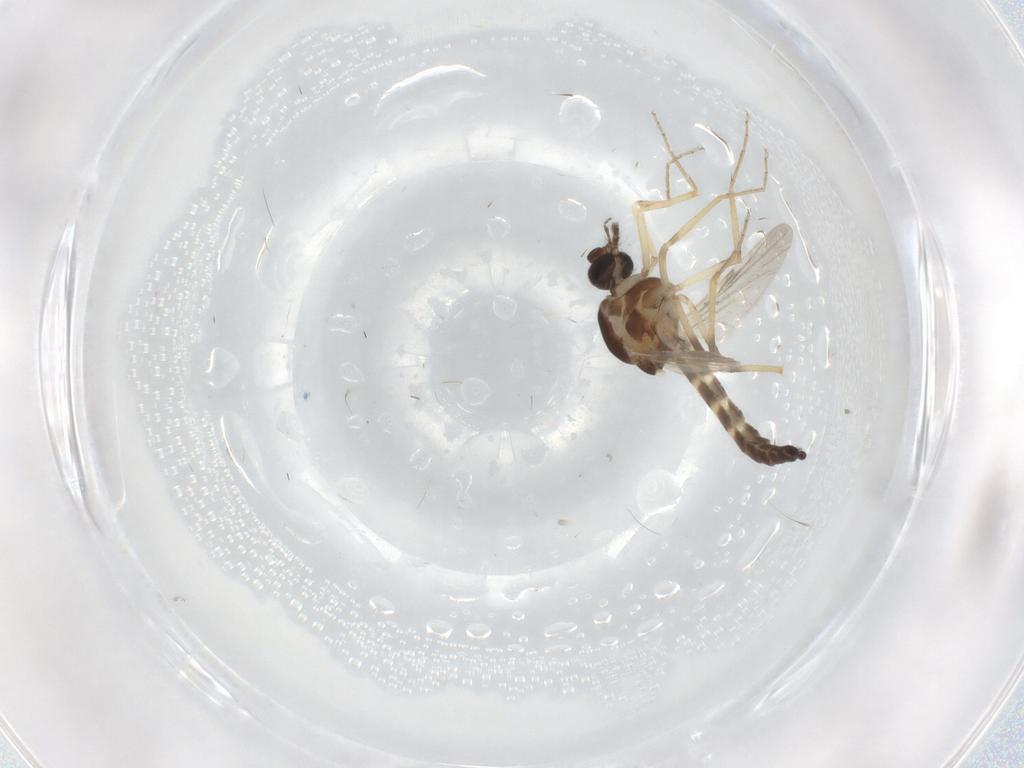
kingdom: Animalia
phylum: Arthropoda
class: Insecta
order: Diptera
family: Ceratopogonidae
